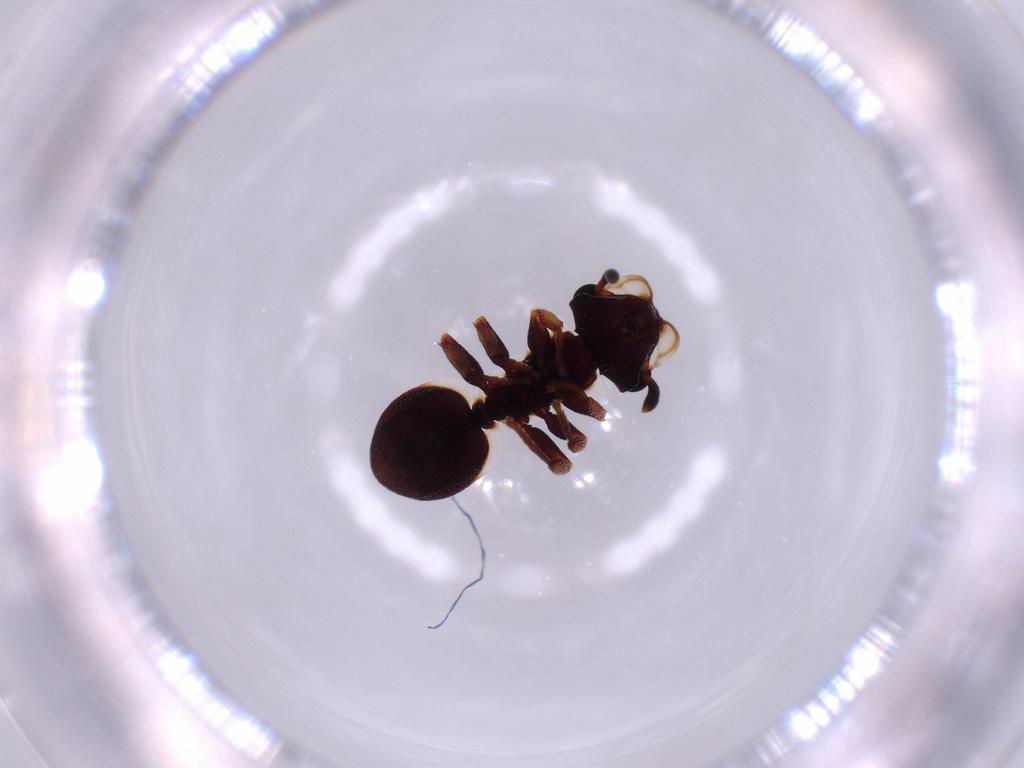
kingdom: Animalia
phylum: Arthropoda
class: Insecta
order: Hymenoptera
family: Formicidae
